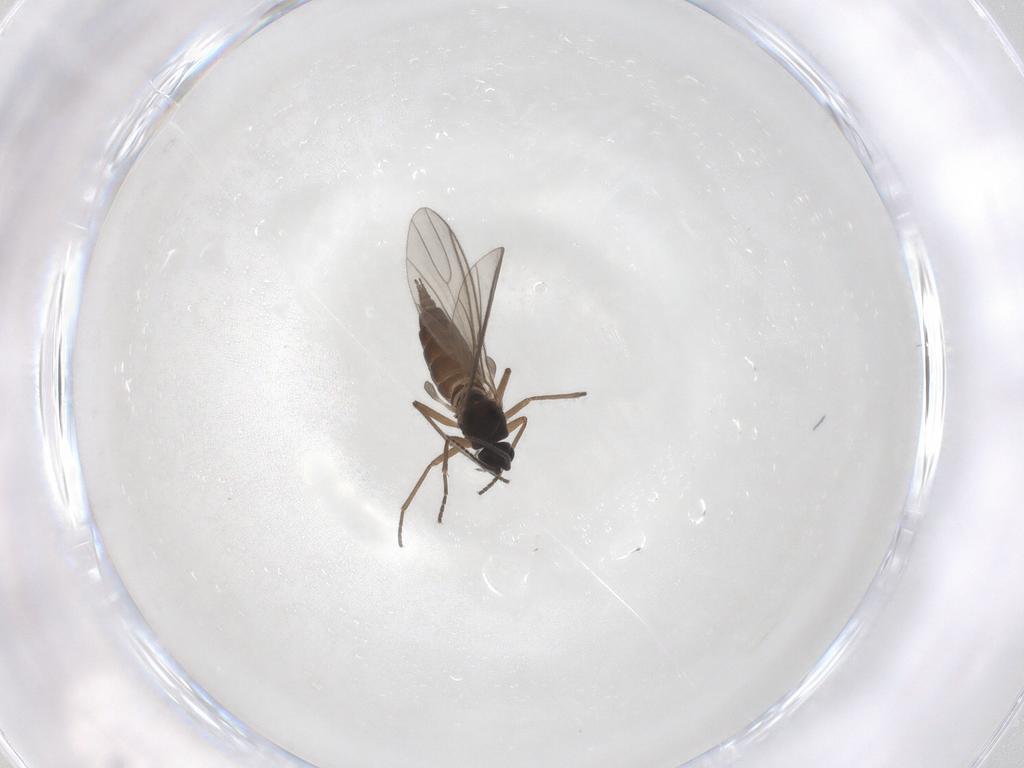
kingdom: Animalia
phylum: Arthropoda
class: Insecta
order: Diptera
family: Sciaridae
